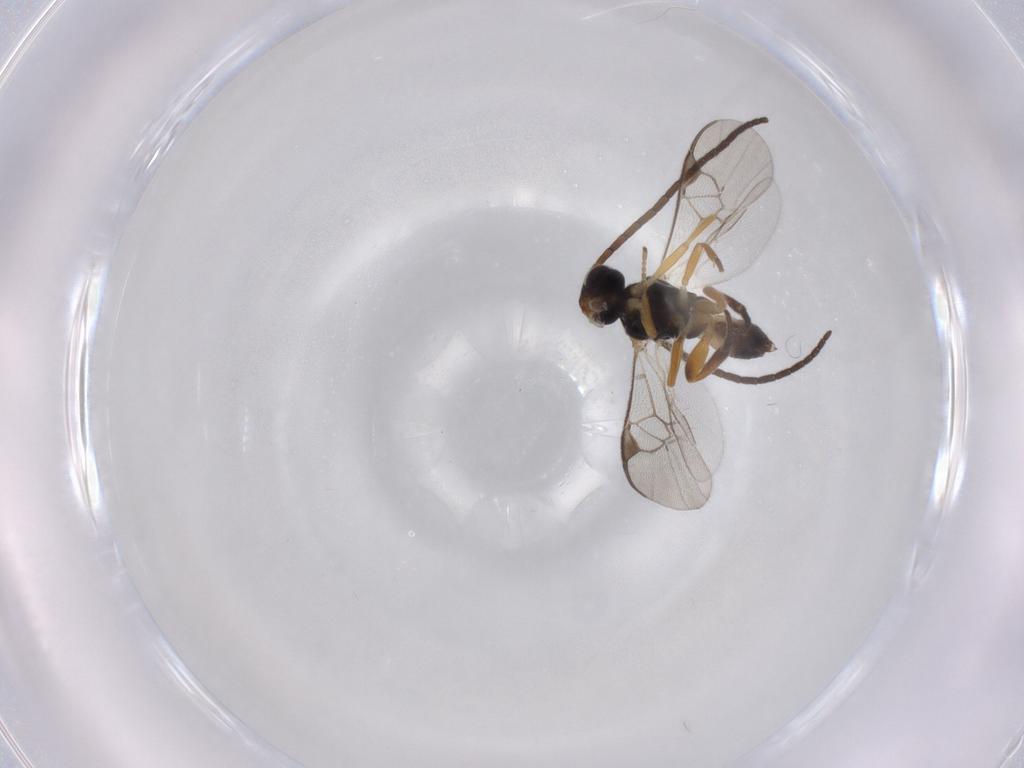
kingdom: Animalia
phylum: Arthropoda
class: Insecta
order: Hymenoptera
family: Braconidae
